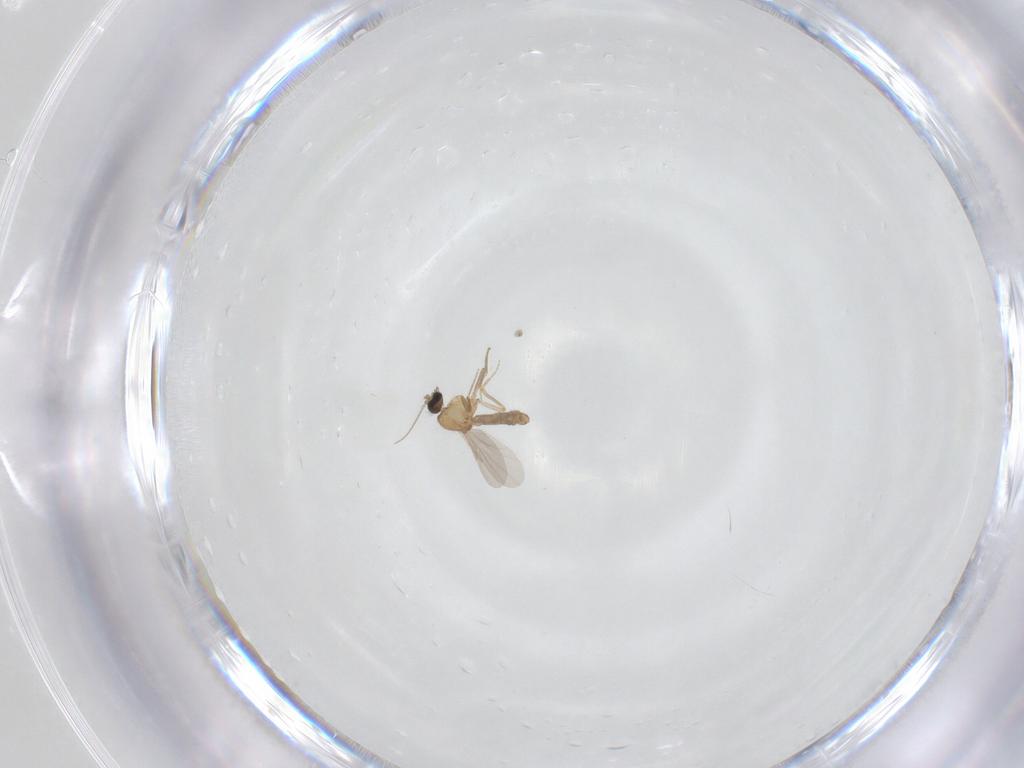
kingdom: Animalia
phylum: Arthropoda
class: Insecta
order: Diptera
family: Ceratopogonidae
